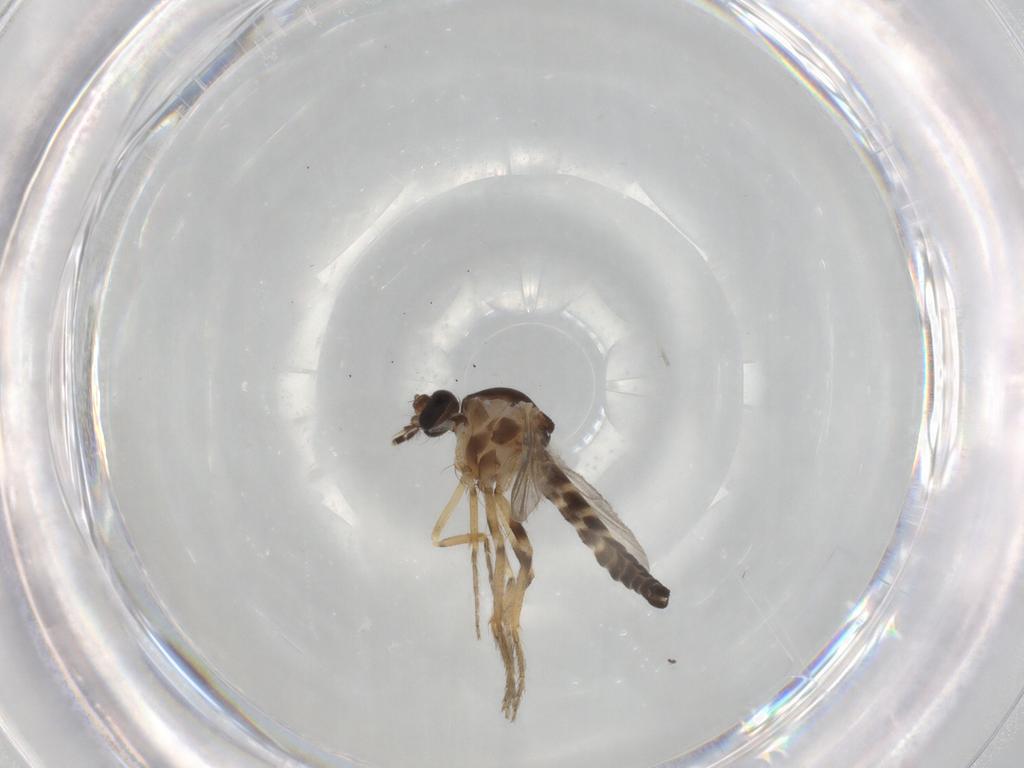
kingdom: Animalia
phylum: Arthropoda
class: Insecta
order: Diptera
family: Ceratopogonidae
